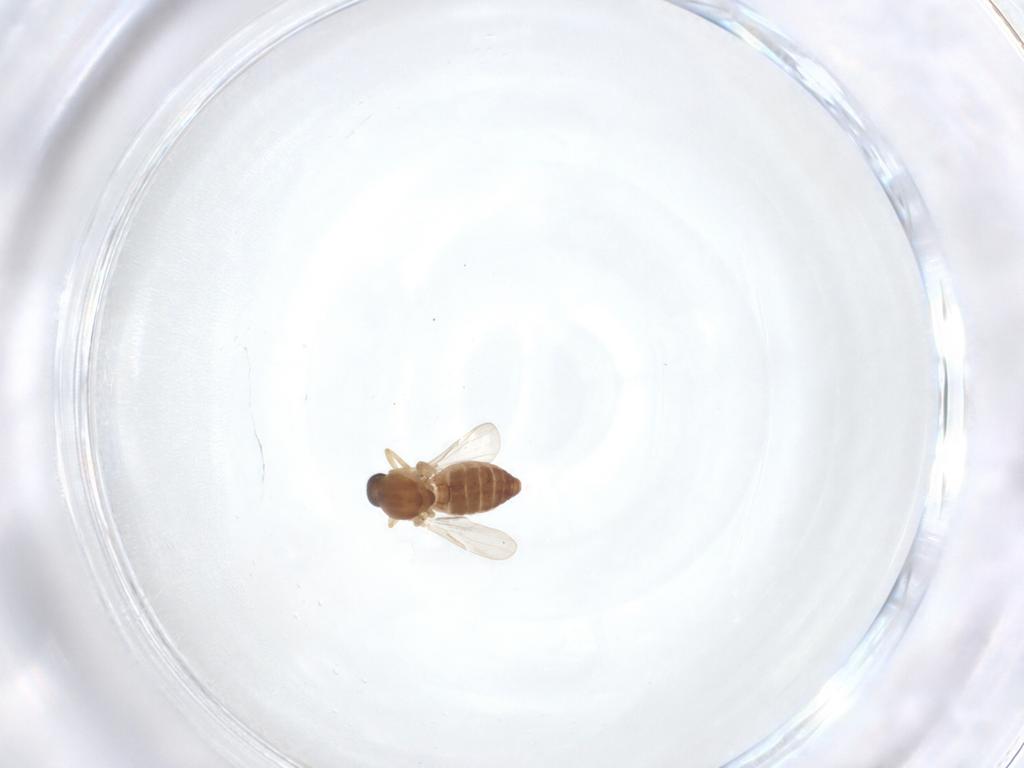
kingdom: Animalia
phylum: Arthropoda
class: Insecta
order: Diptera
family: Ceratopogonidae
